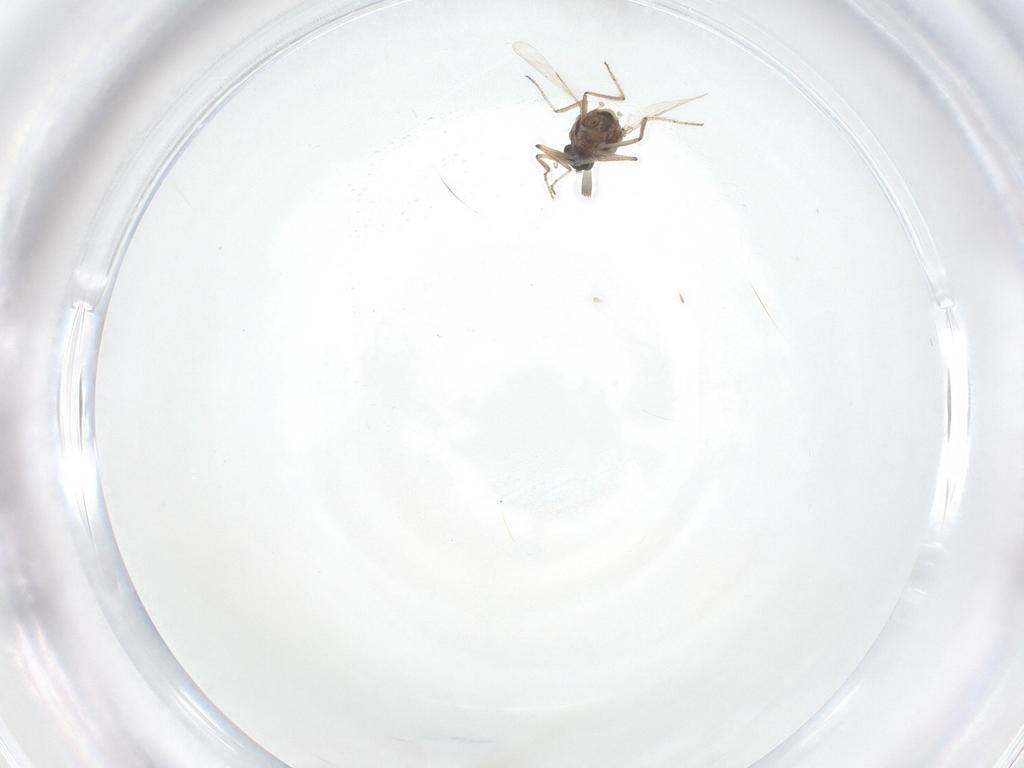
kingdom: Animalia
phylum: Arthropoda
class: Insecta
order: Diptera
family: Ceratopogonidae
